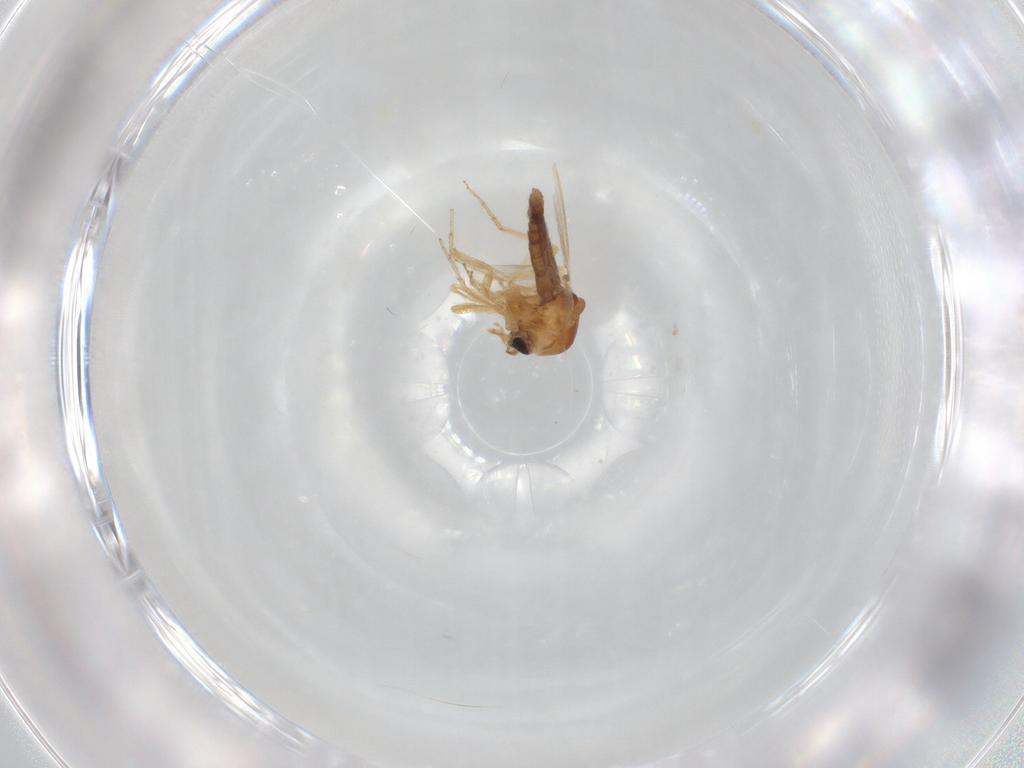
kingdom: Animalia
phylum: Arthropoda
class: Insecta
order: Diptera
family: Ceratopogonidae
